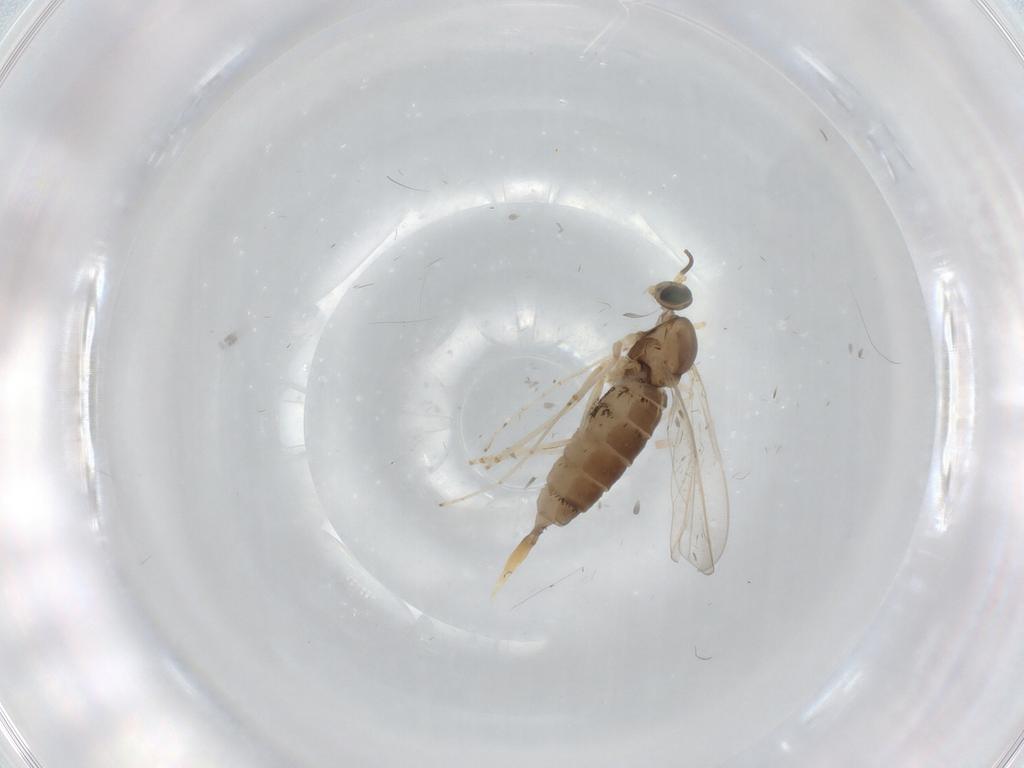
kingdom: Animalia
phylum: Arthropoda
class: Insecta
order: Diptera
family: Cecidomyiidae
